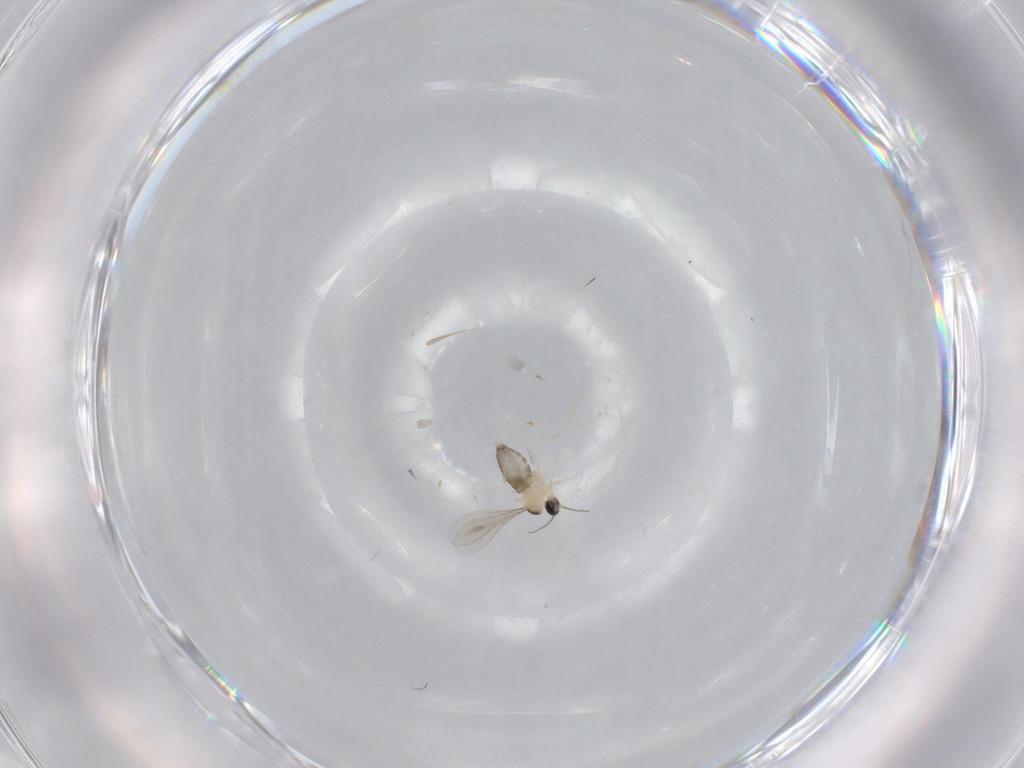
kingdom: Animalia
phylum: Arthropoda
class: Insecta
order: Diptera
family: Cecidomyiidae
